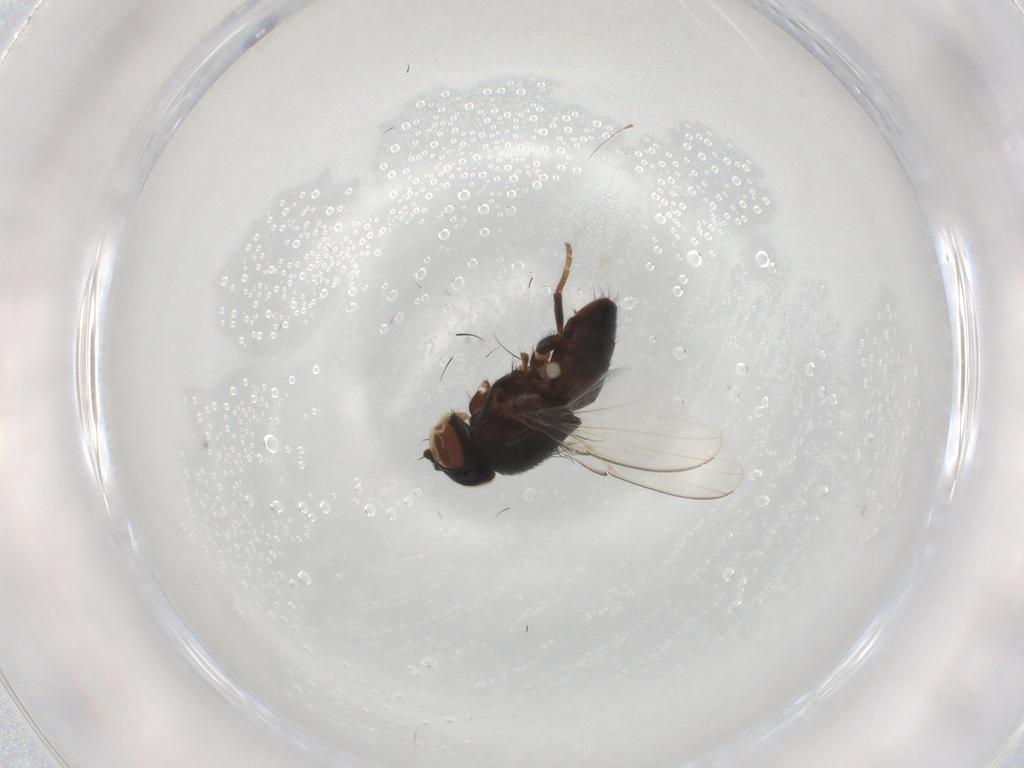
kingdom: Animalia
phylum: Arthropoda
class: Insecta
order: Diptera
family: Milichiidae
